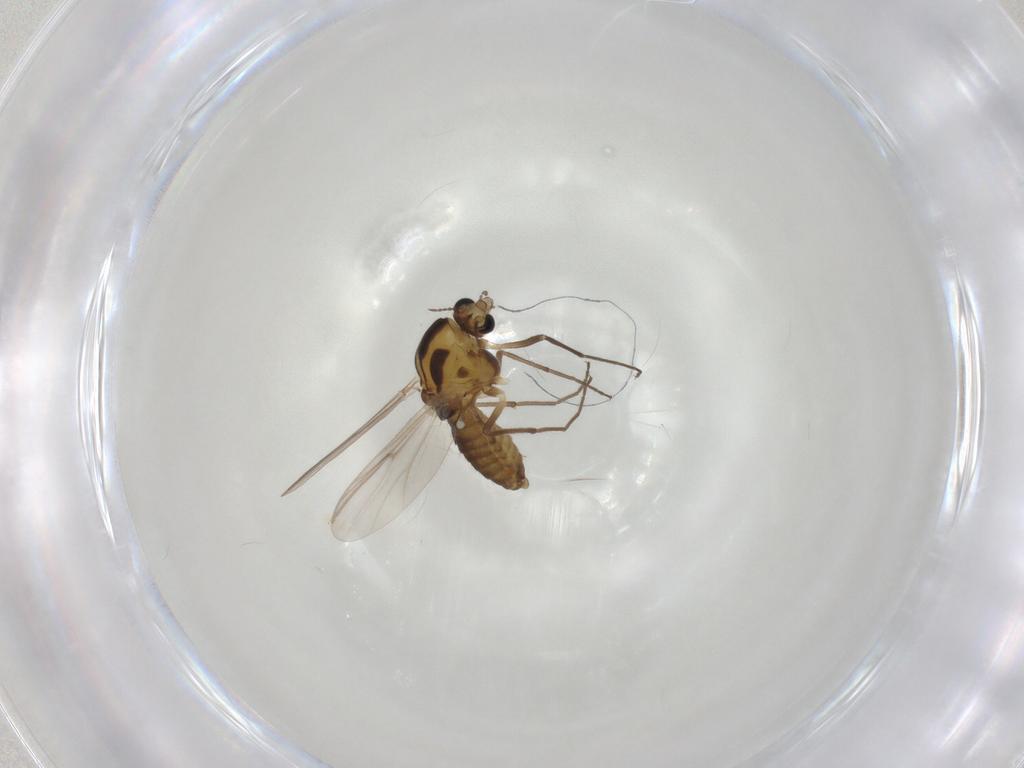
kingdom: Animalia
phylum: Arthropoda
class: Insecta
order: Diptera
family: Chironomidae
